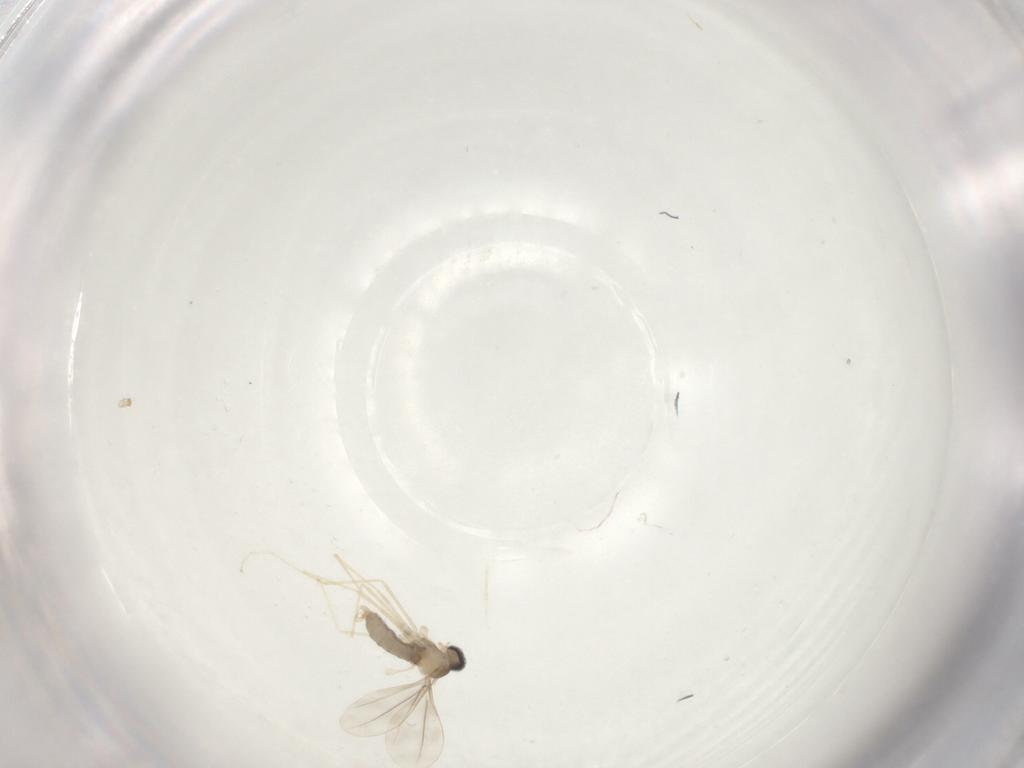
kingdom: Animalia
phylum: Arthropoda
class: Insecta
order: Diptera
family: Cecidomyiidae
